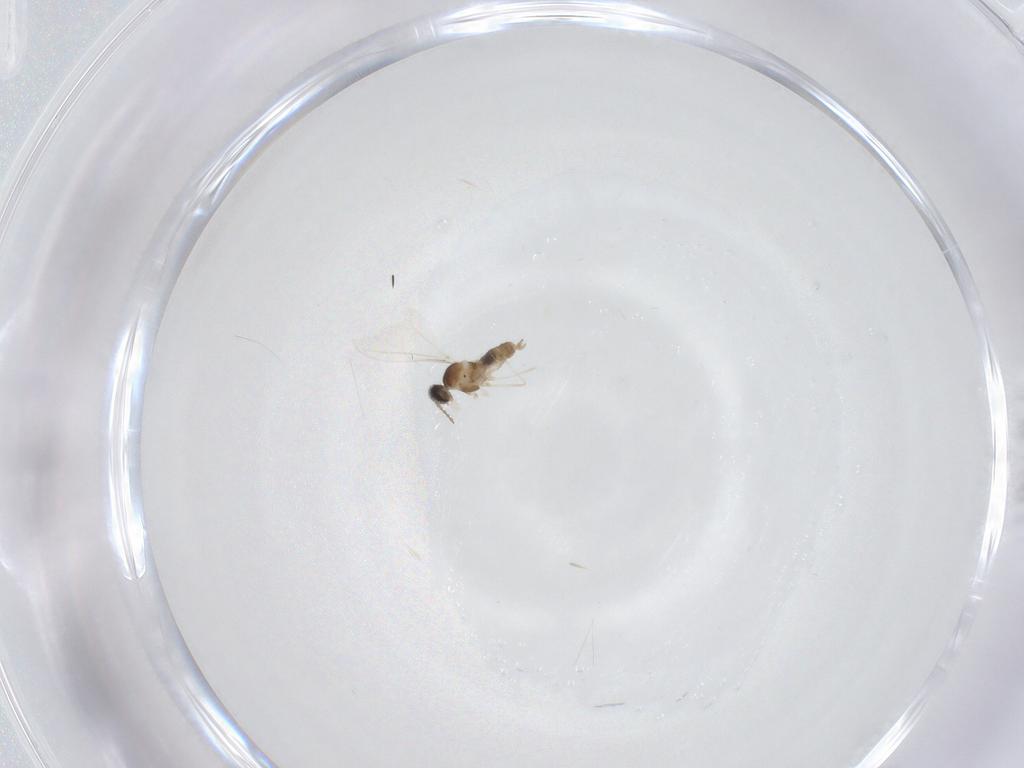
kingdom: Animalia
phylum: Arthropoda
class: Insecta
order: Diptera
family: Cecidomyiidae
